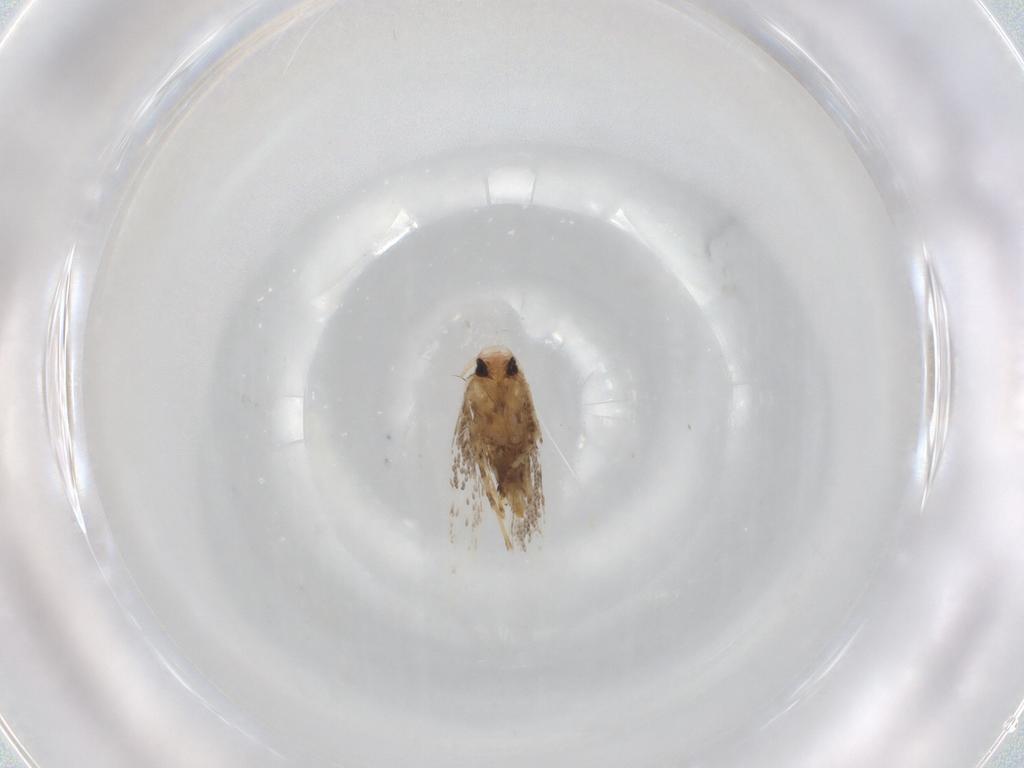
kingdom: Animalia
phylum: Arthropoda
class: Insecta
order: Lepidoptera
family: Gracillariidae
